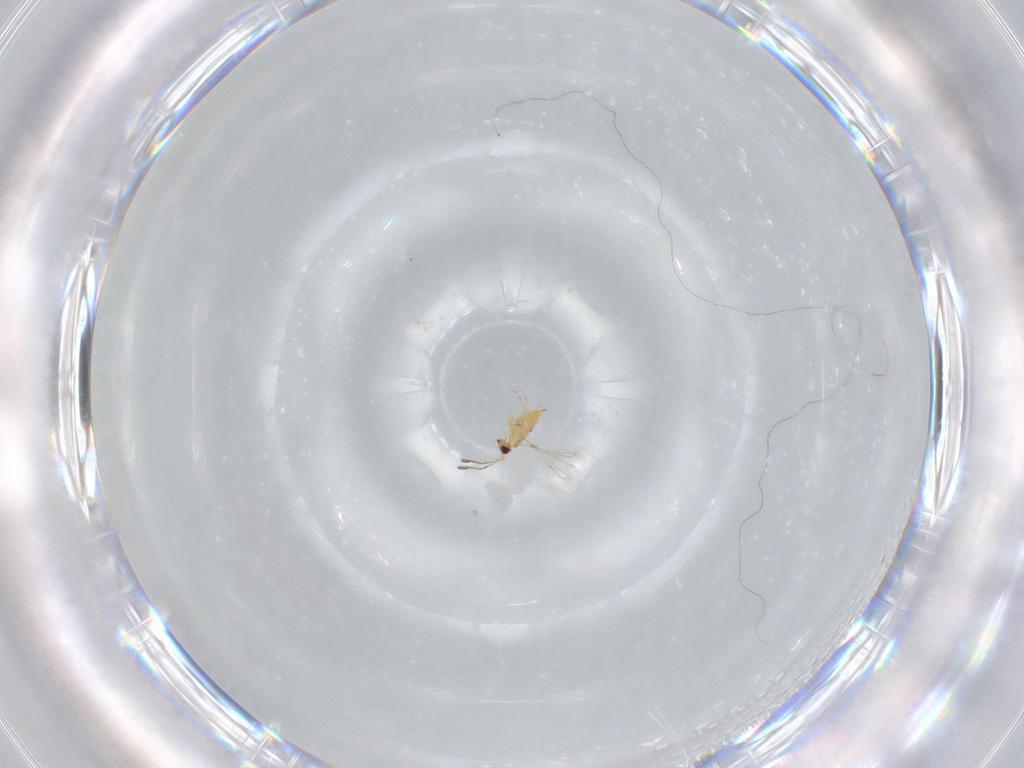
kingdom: Animalia
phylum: Arthropoda
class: Insecta
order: Hymenoptera
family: Mymaridae
